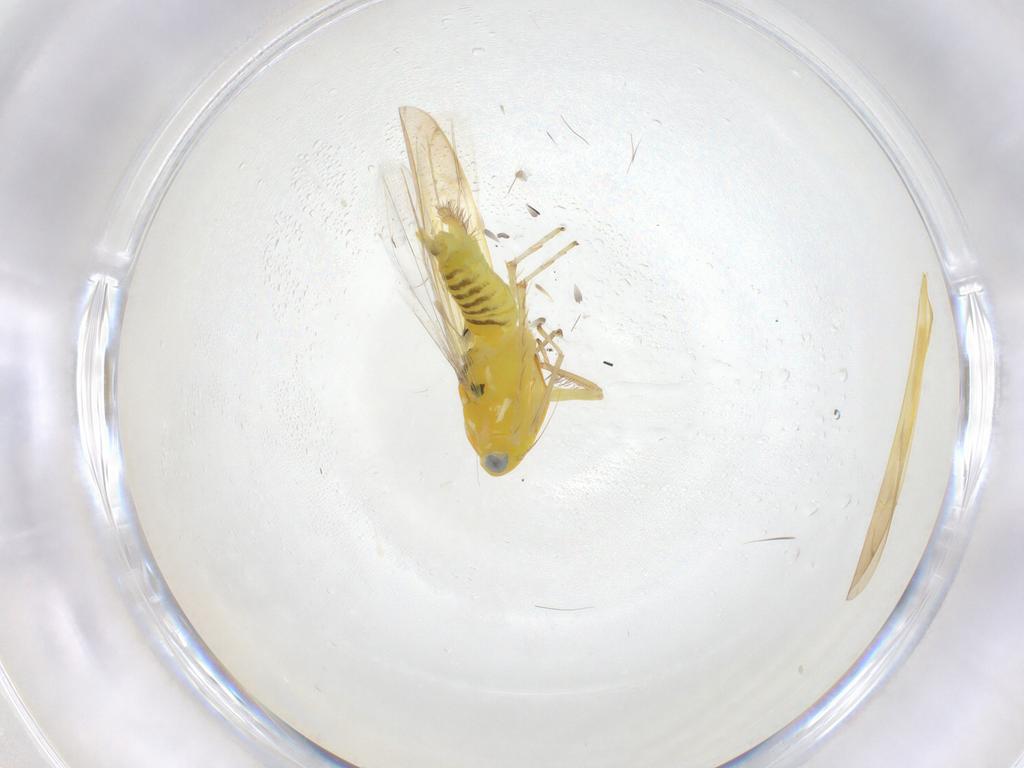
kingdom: Animalia
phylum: Arthropoda
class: Insecta
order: Hemiptera
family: Cicadellidae
